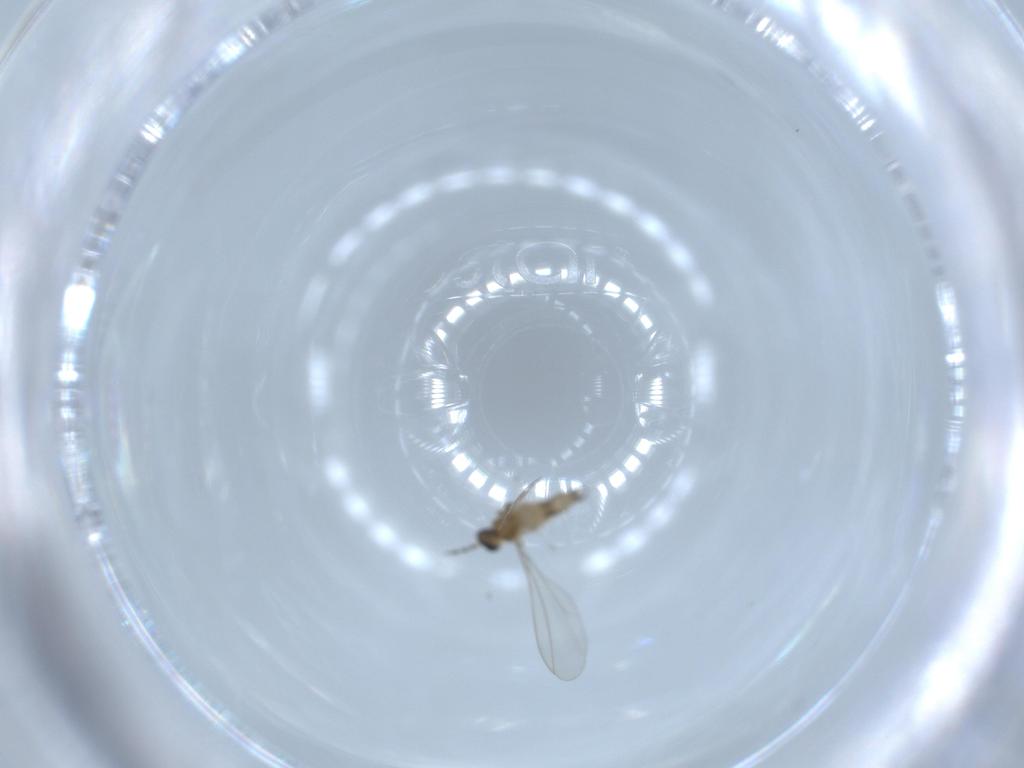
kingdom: Animalia
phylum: Arthropoda
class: Insecta
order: Diptera
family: Cecidomyiidae
